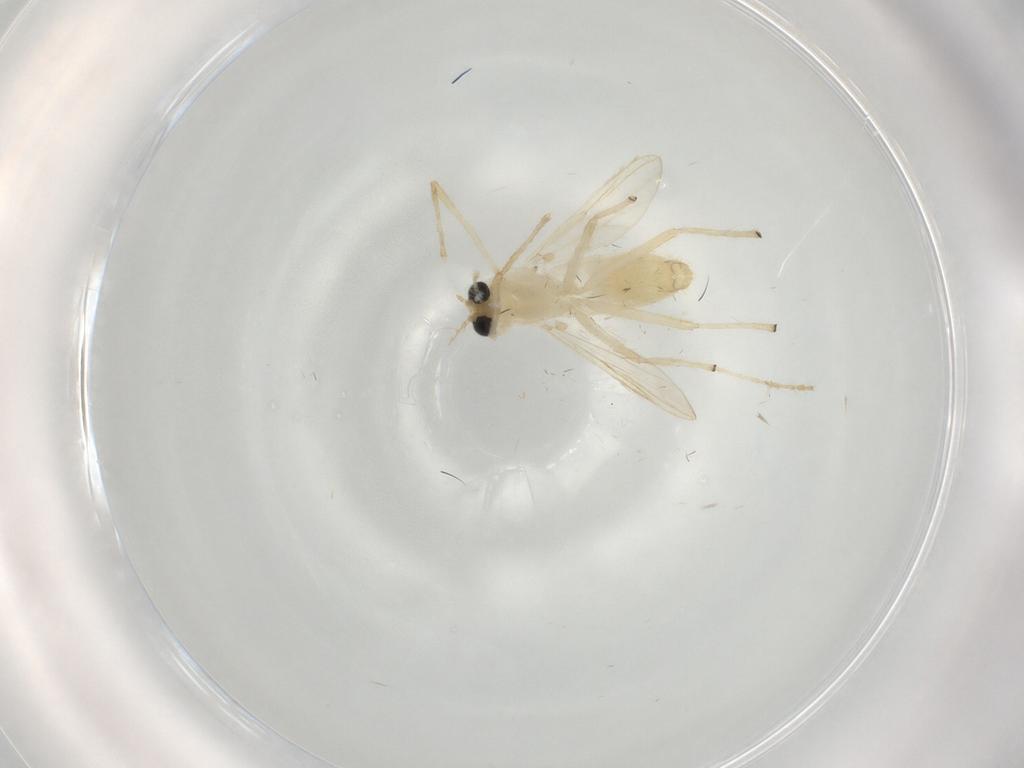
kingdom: Animalia
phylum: Arthropoda
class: Insecta
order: Diptera
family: Chironomidae
